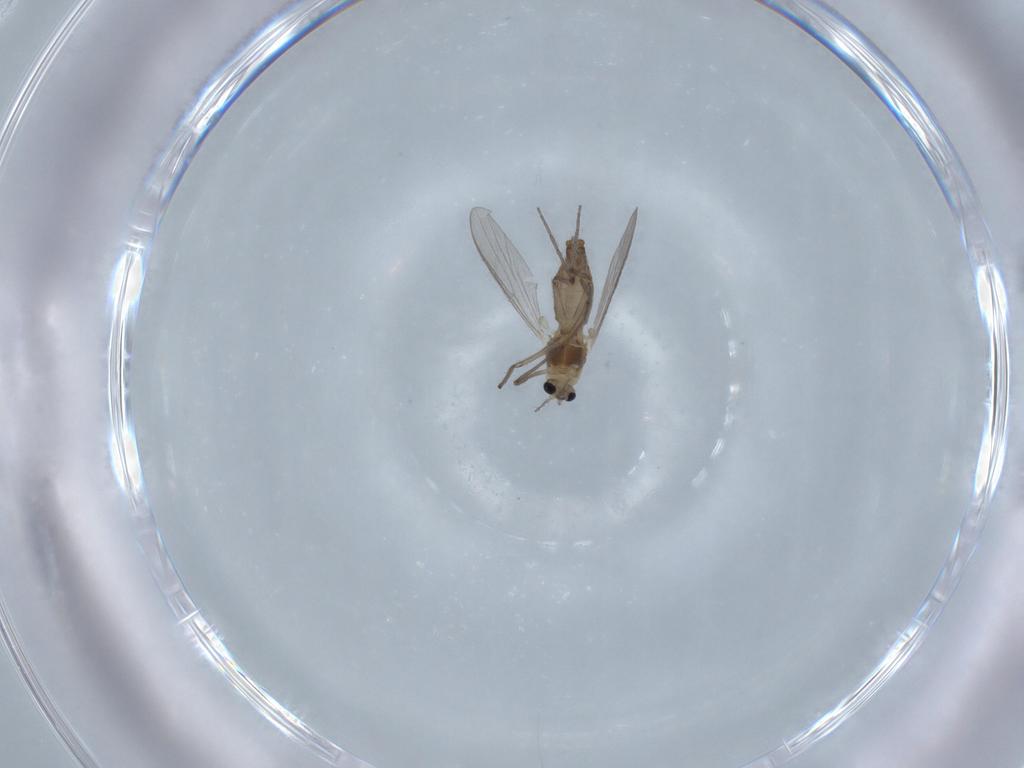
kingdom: Animalia
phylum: Arthropoda
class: Insecta
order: Diptera
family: Chironomidae
